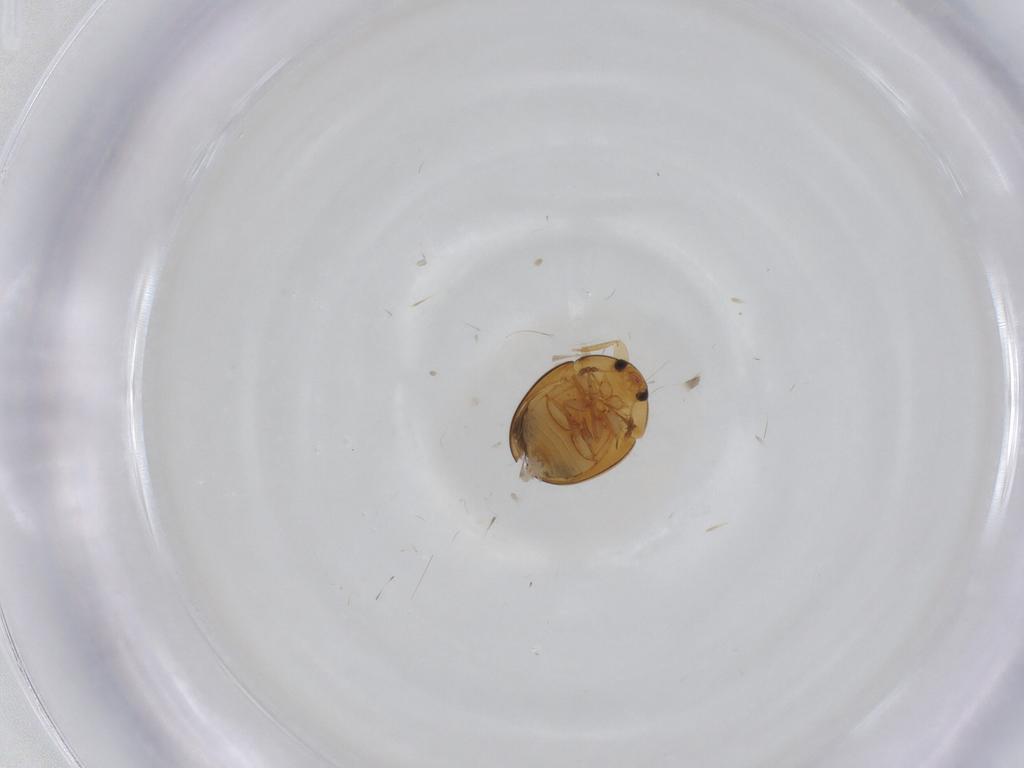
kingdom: Animalia
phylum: Arthropoda
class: Insecta
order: Coleoptera
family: Phalacridae
